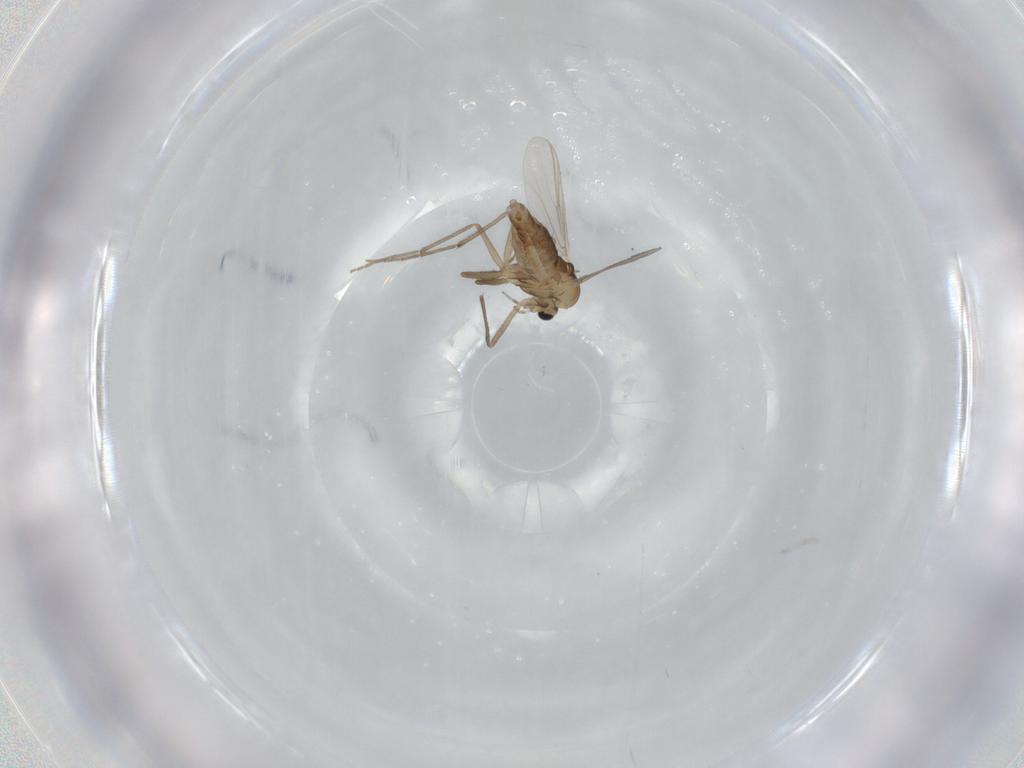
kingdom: Animalia
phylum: Arthropoda
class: Insecta
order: Diptera
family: Chironomidae
